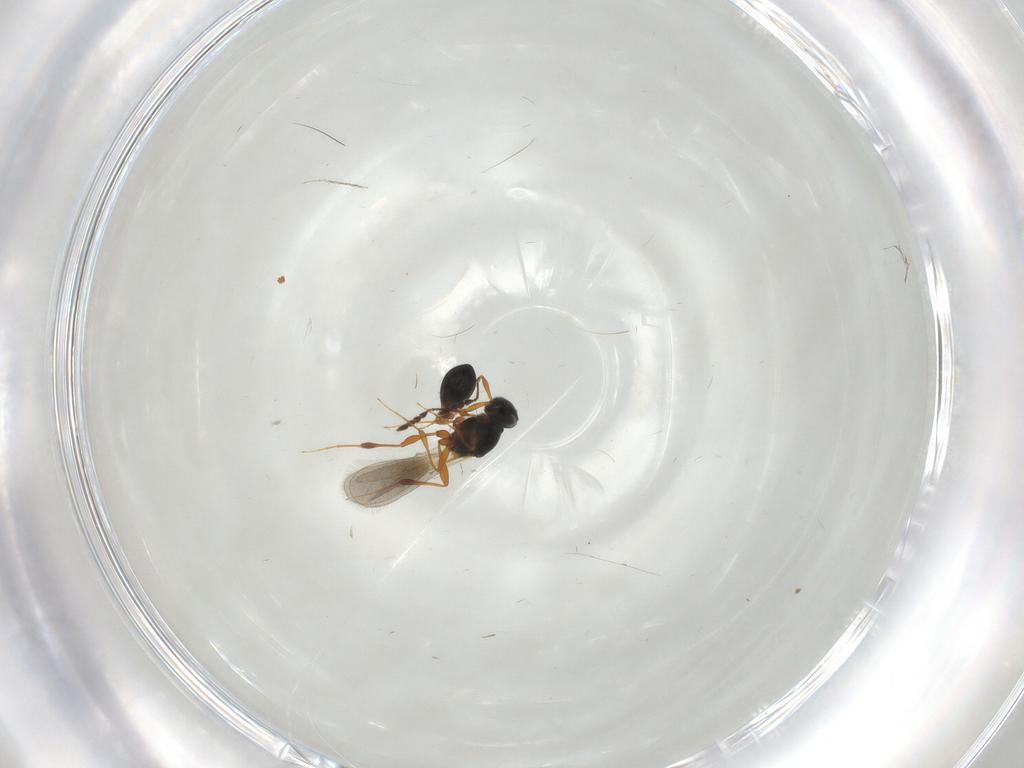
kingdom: Animalia
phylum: Arthropoda
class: Insecta
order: Hymenoptera
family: Platygastridae
